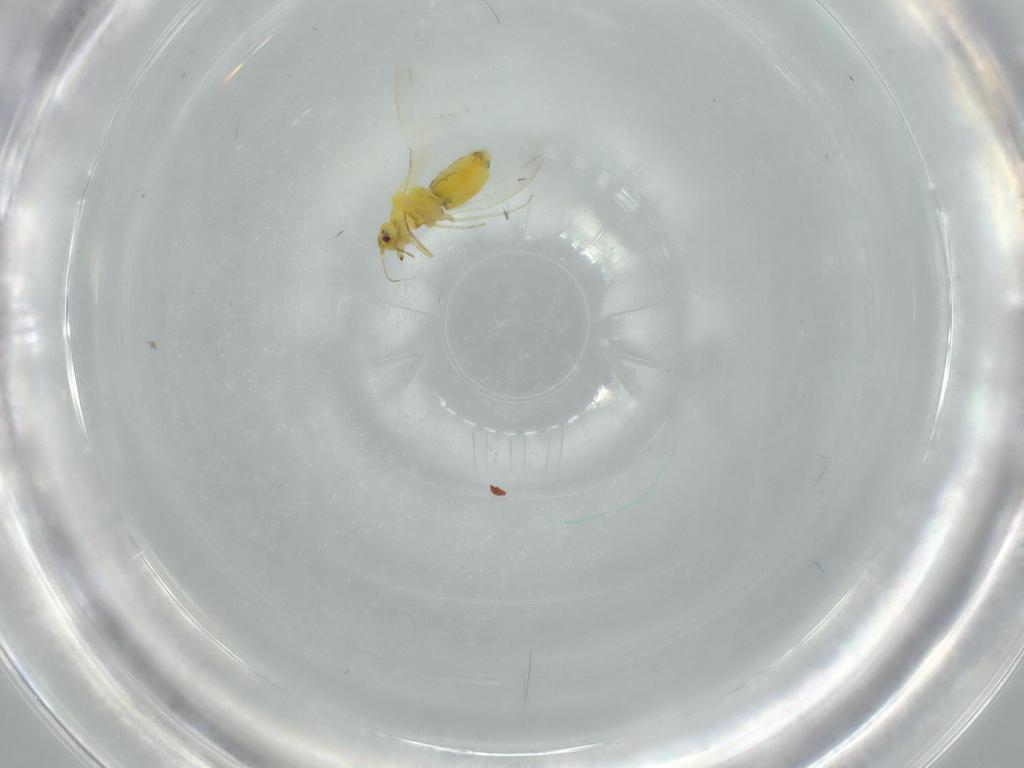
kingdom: Animalia
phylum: Arthropoda
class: Insecta
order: Hemiptera
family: Aleyrodidae
